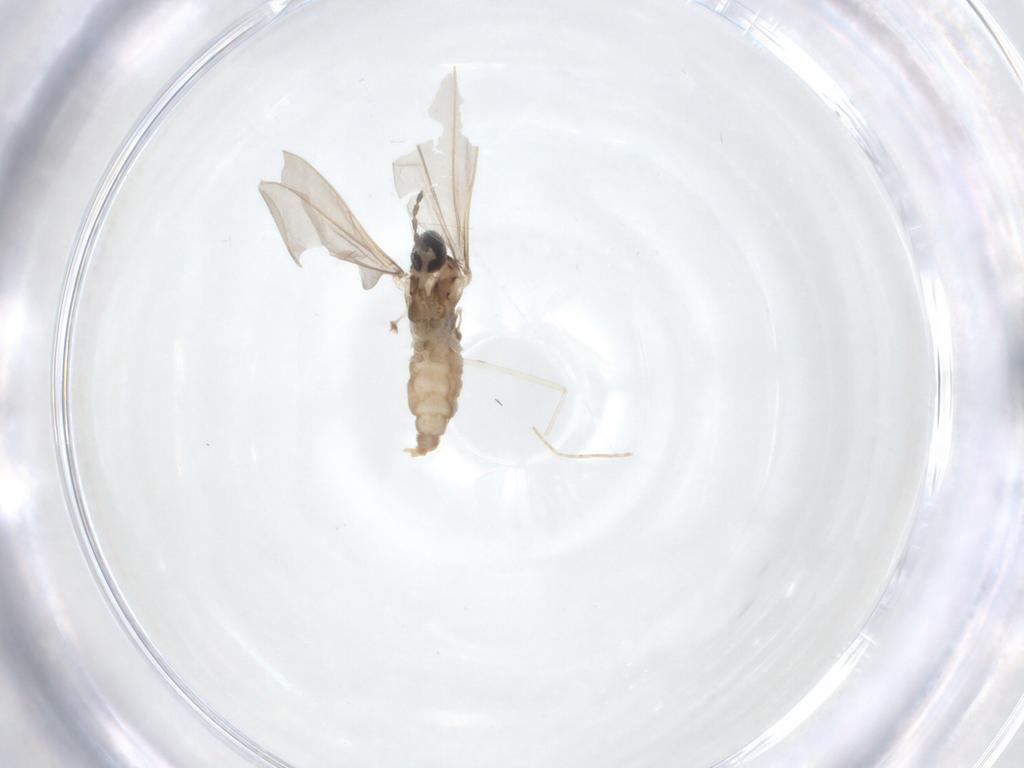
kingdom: Animalia
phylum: Arthropoda
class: Insecta
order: Diptera
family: Chironomidae
